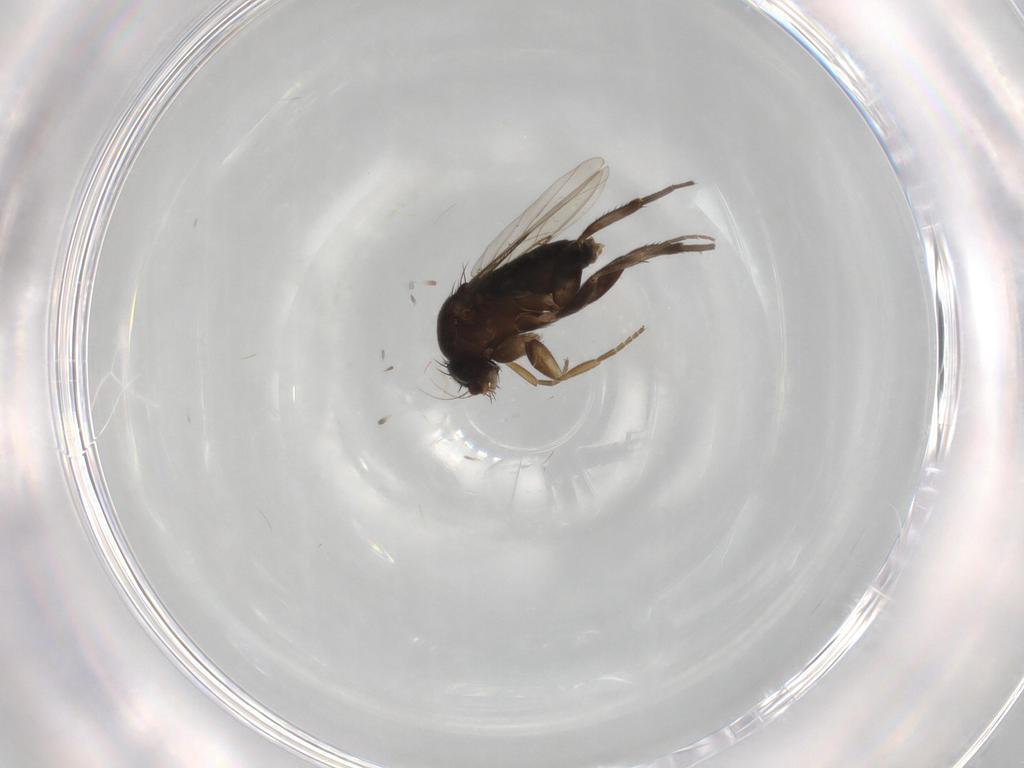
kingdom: Animalia
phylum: Arthropoda
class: Insecta
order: Diptera
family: Phoridae
